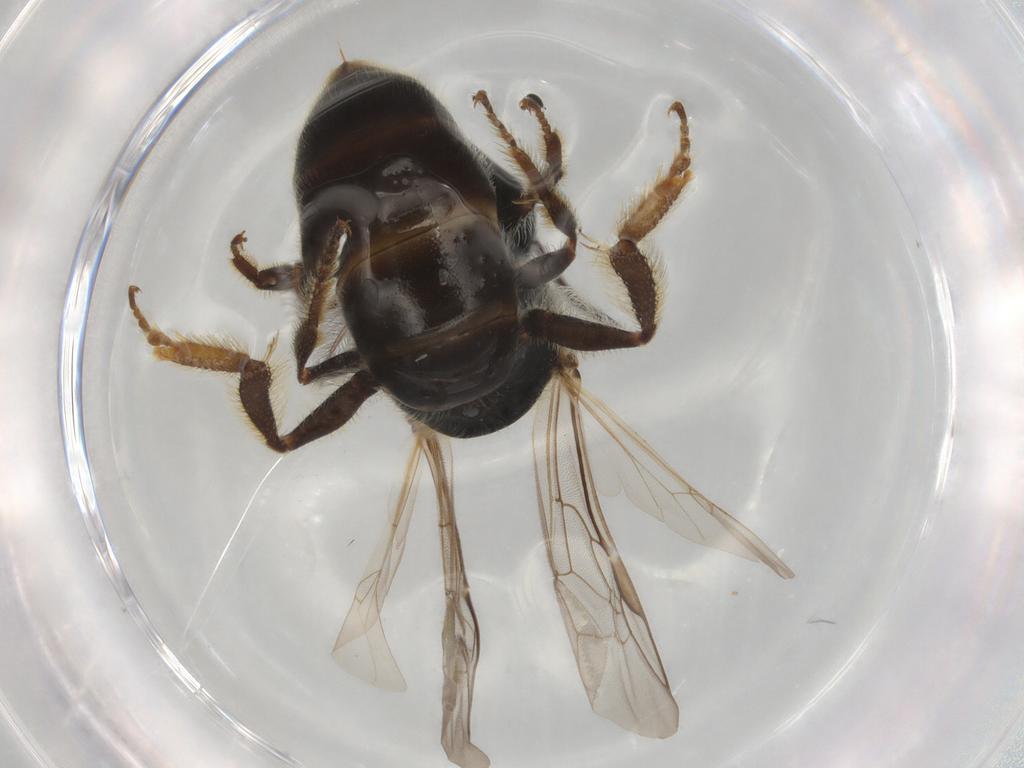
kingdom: Animalia
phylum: Arthropoda
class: Insecta
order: Hymenoptera
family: Halictidae
